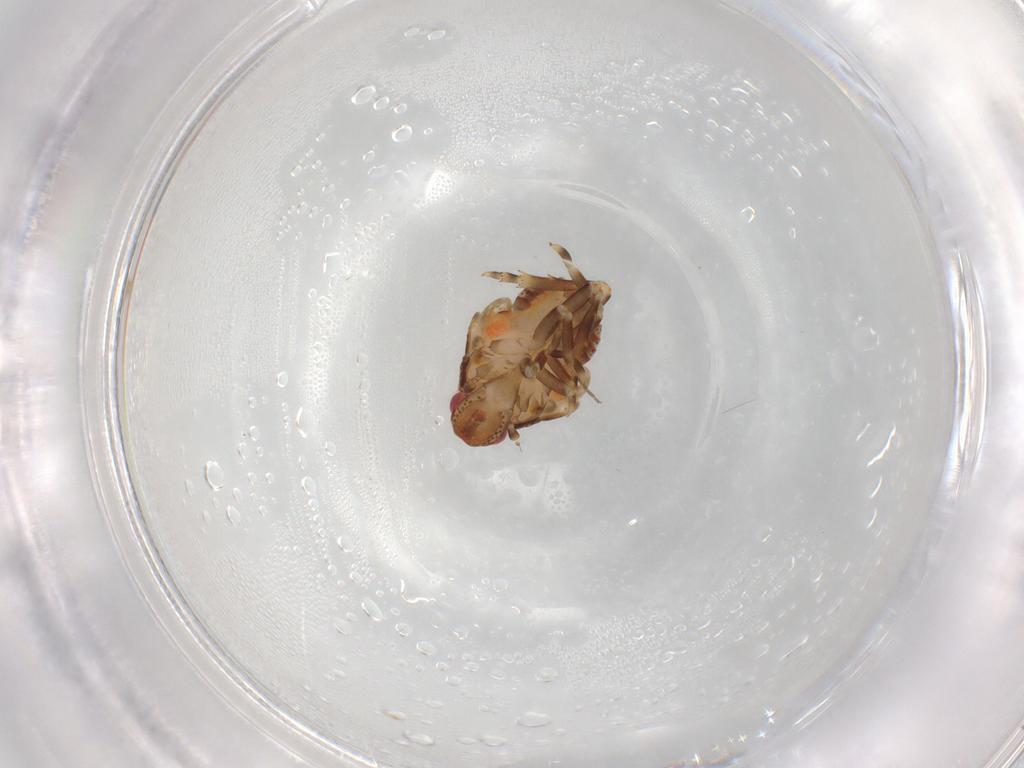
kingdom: Animalia
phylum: Arthropoda
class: Insecta
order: Hemiptera
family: Flatidae
